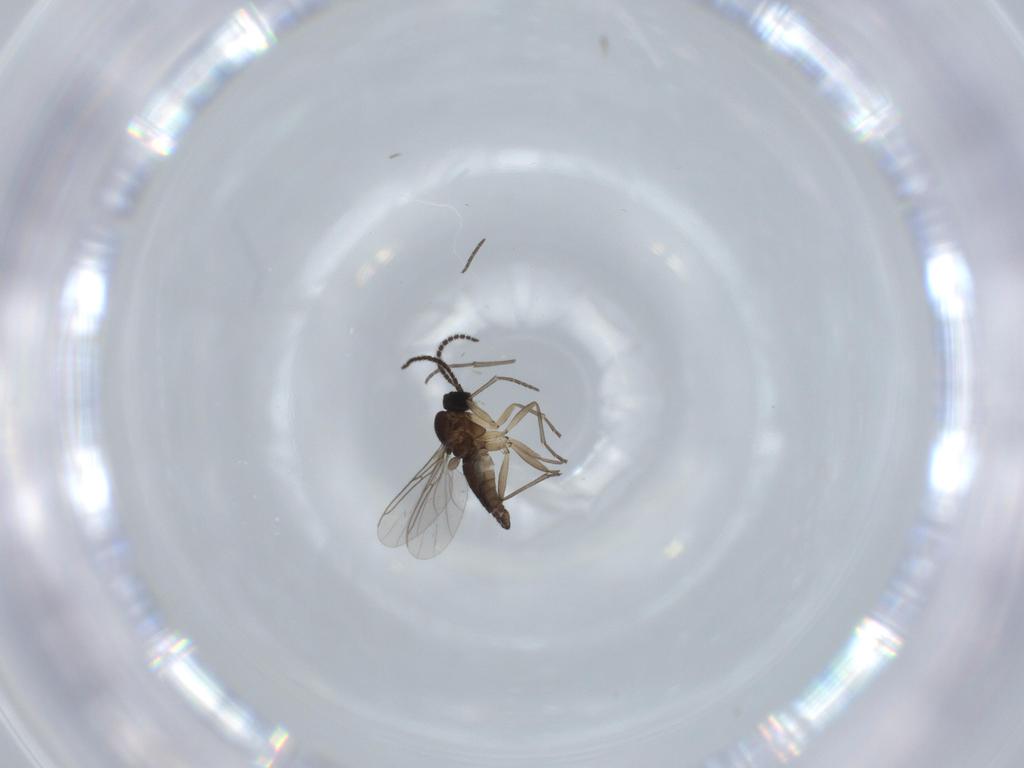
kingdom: Animalia
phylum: Arthropoda
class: Insecta
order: Diptera
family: Sciaridae
